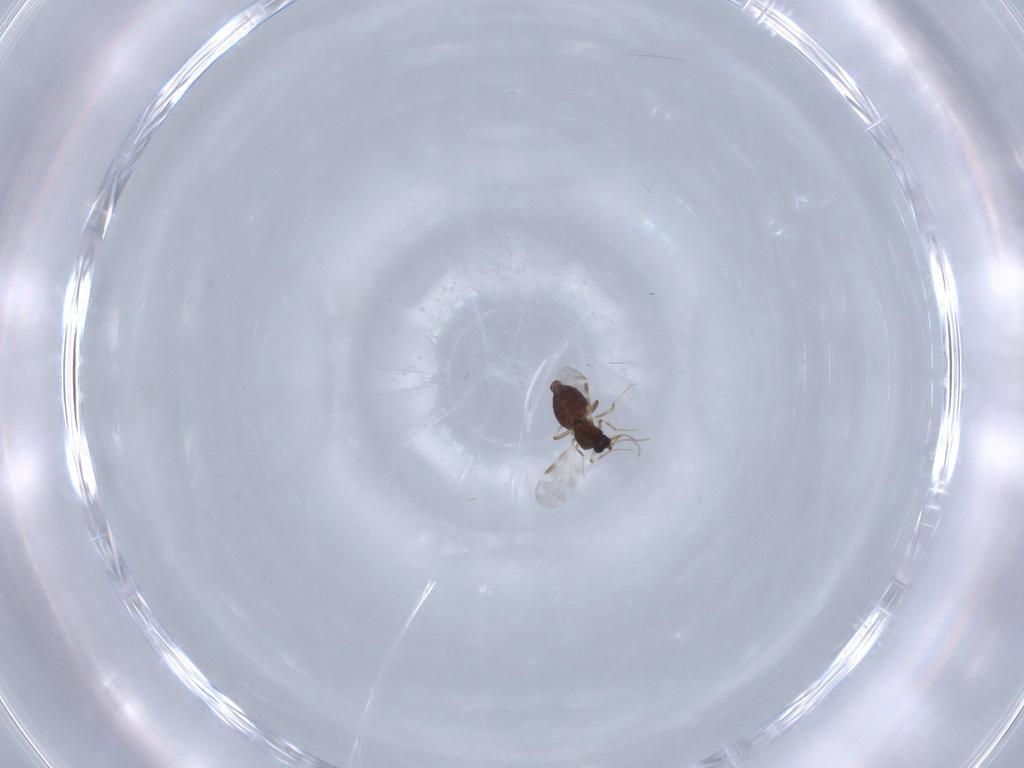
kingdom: Animalia
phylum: Arthropoda
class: Insecta
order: Diptera
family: Ceratopogonidae
